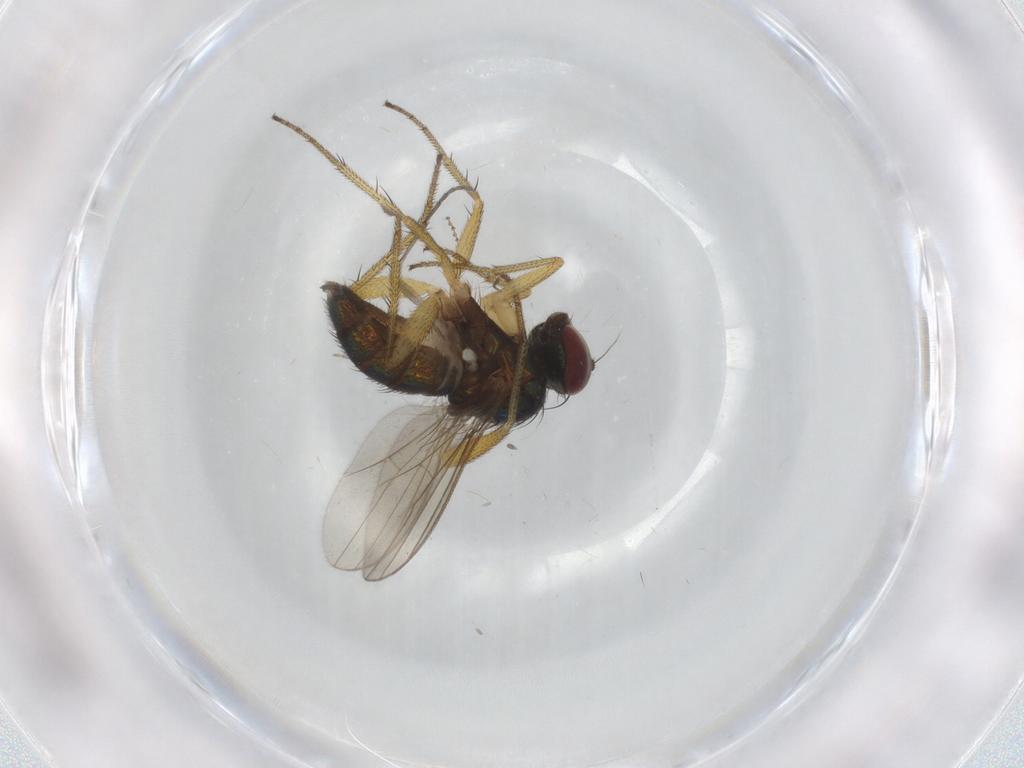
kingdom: Animalia
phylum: Arthropoda
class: Insecta
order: Diptera
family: Dolichopodidae
